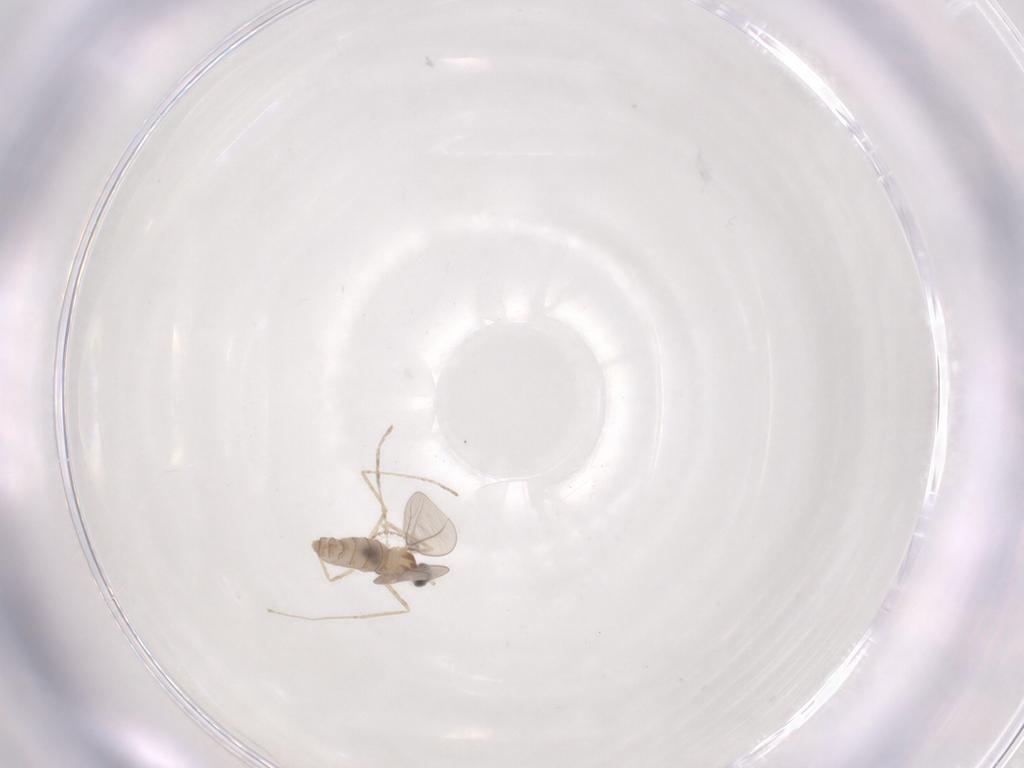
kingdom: Animalia
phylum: Arthropoda
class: Insecta
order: Diptera
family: Cecidomyiidae
